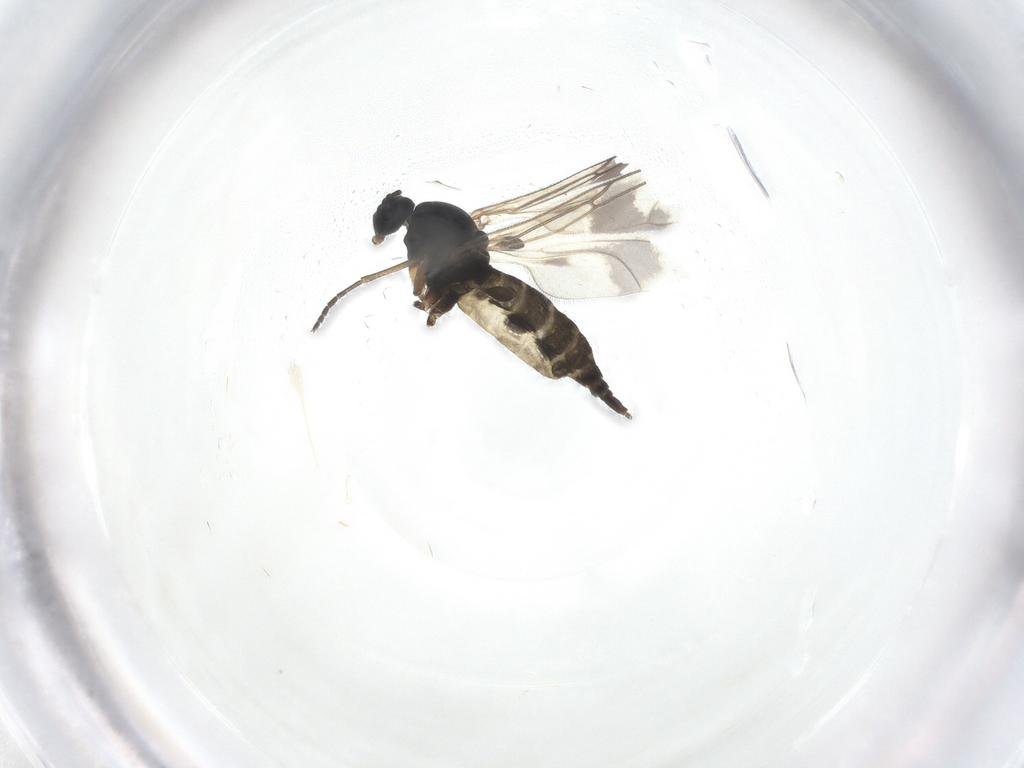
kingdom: Animalia
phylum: Arthropoda
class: Insecta
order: Diptera
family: Sciaridae
